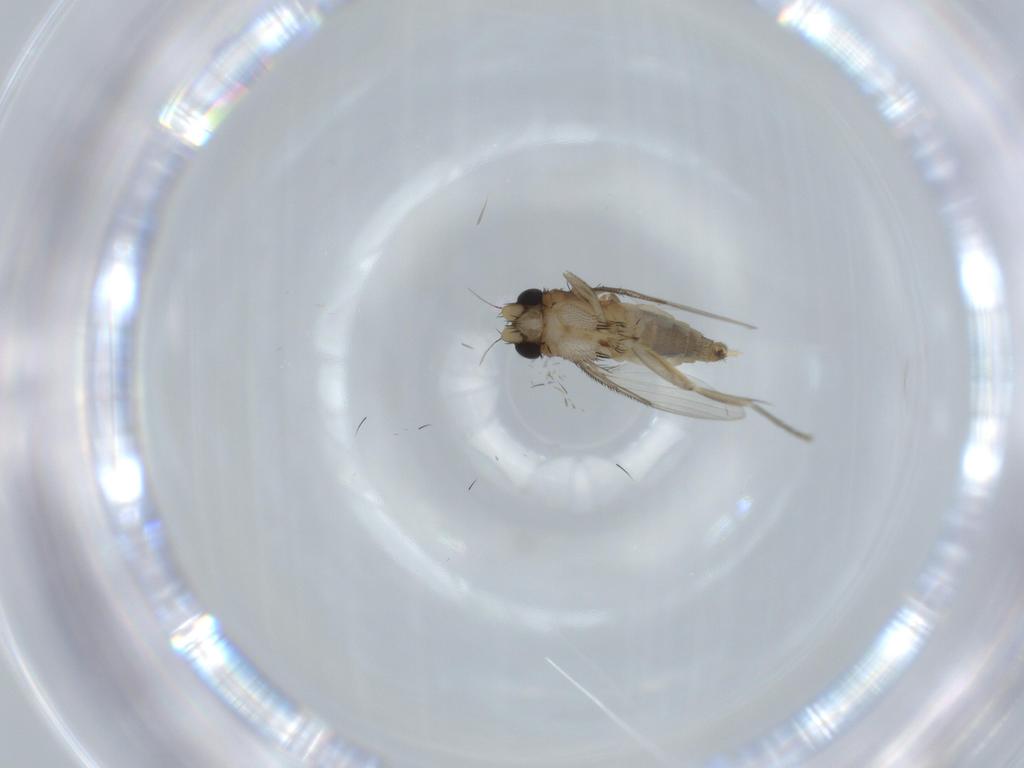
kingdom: Animalia
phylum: Arthropoda
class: Insecta
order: Diptera
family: Phoridae
